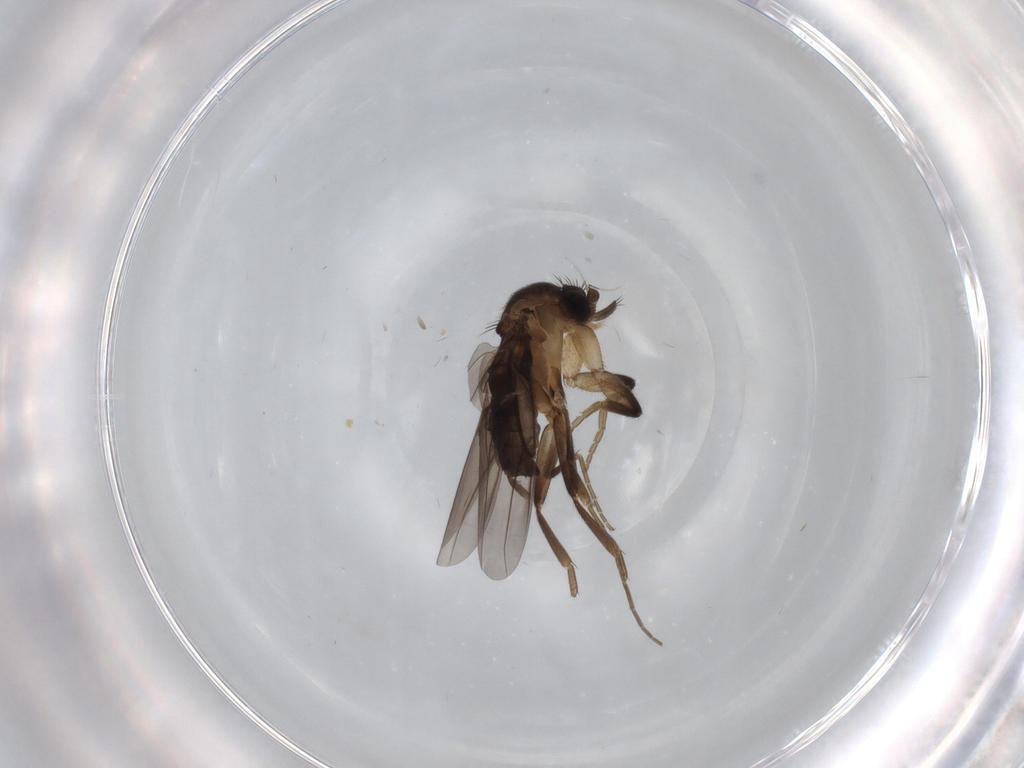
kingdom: Animalia
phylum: Arthropoda
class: Insecta
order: Diptera
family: Phoridae
